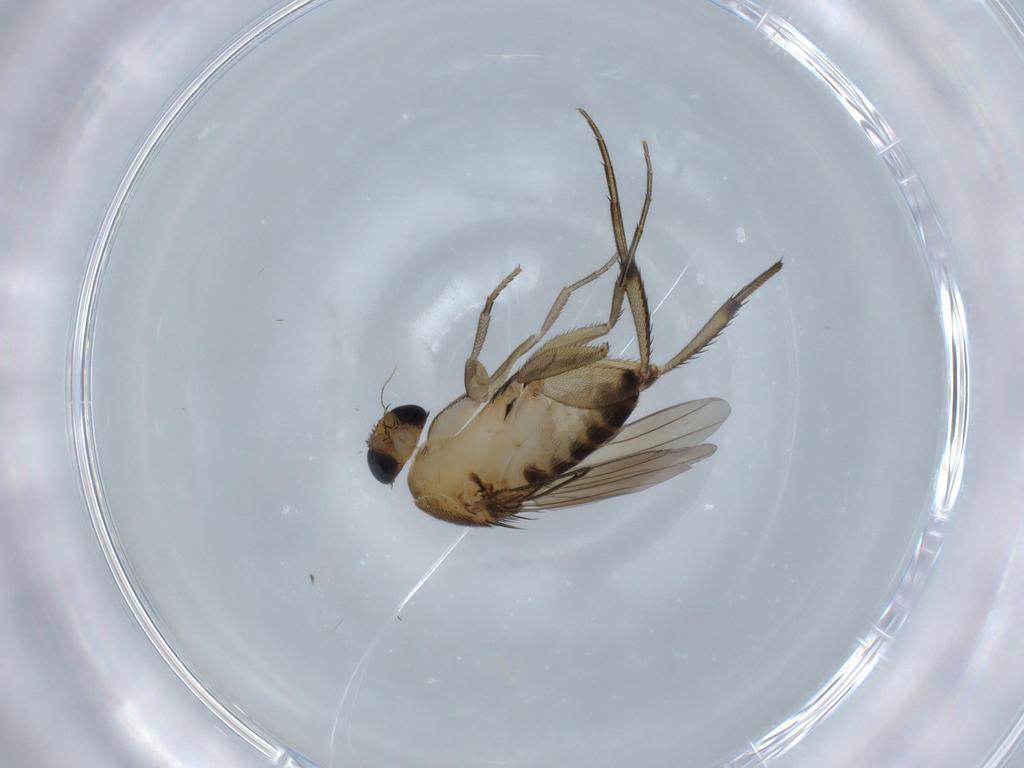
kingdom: Animalia
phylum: Arthropoda
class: Insecta
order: Diptera
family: Phoridae
